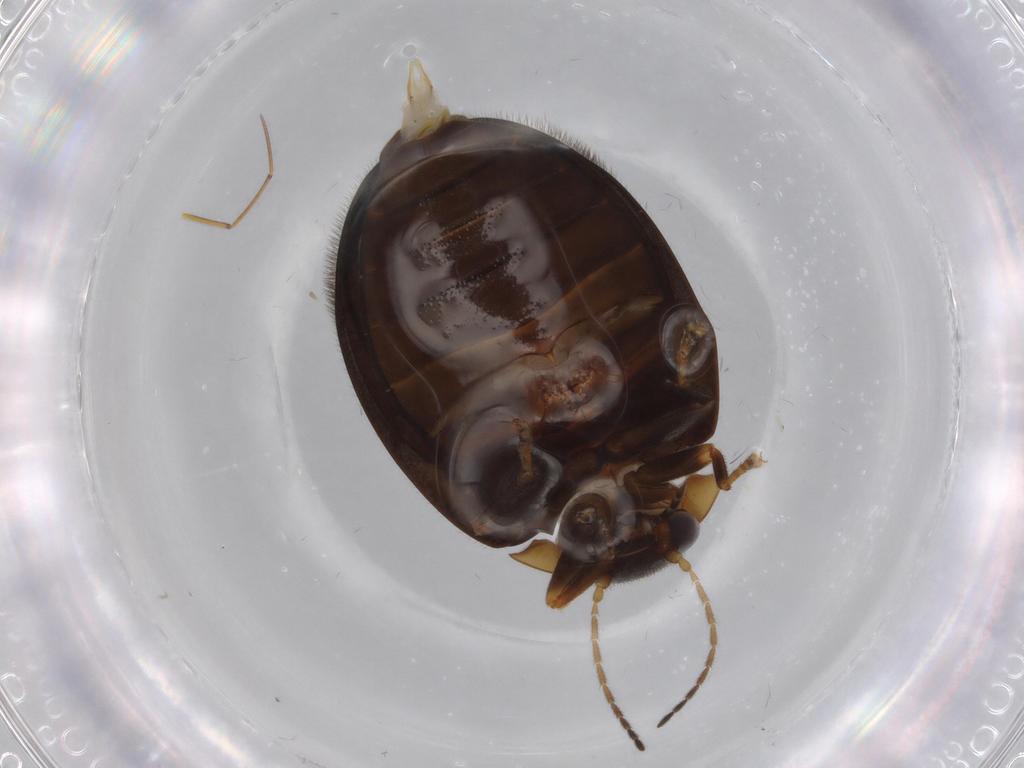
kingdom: Animalia
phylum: Arthropoda
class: Insecta
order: Coleoptera
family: Scirtidae
